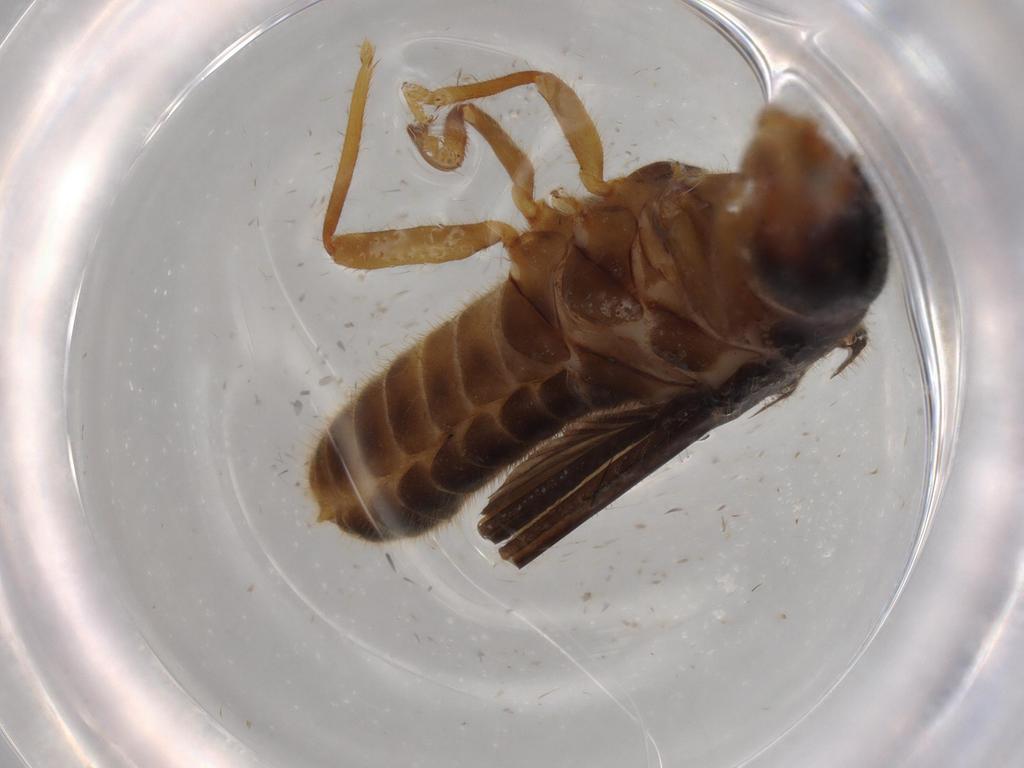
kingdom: Animalia
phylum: Arthropoda
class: Insecta
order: Blattodea
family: Termitidae
